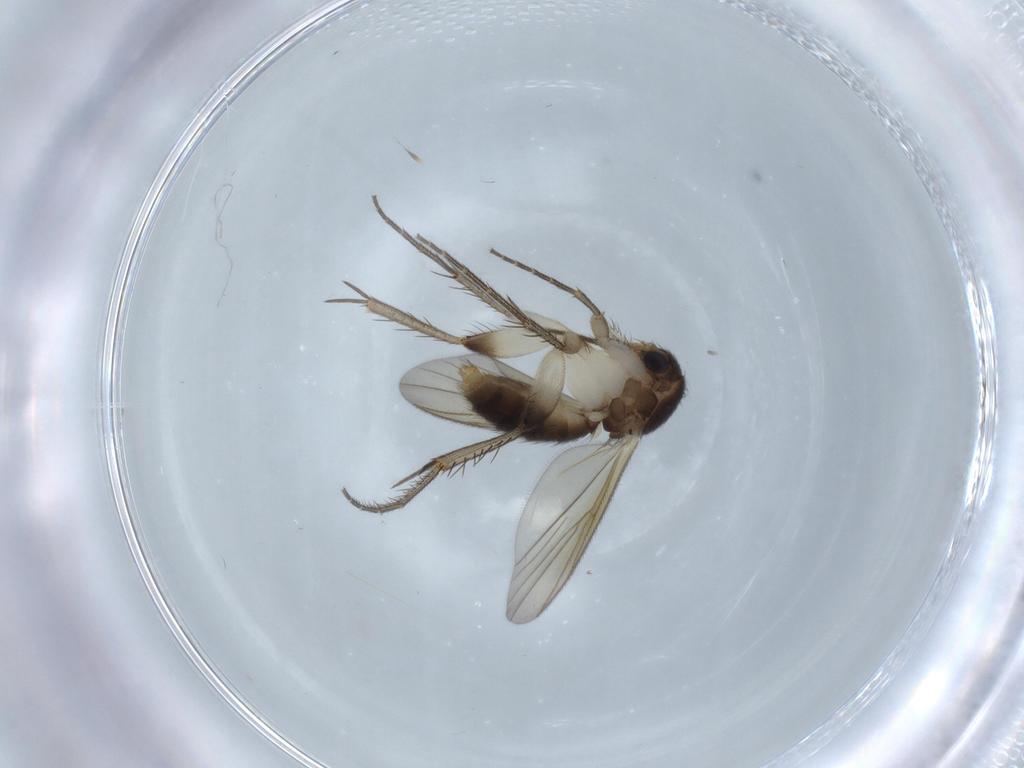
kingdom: Animalia
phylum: Arthropoda
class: Insecta
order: Diptera
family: Mycetophilidae
